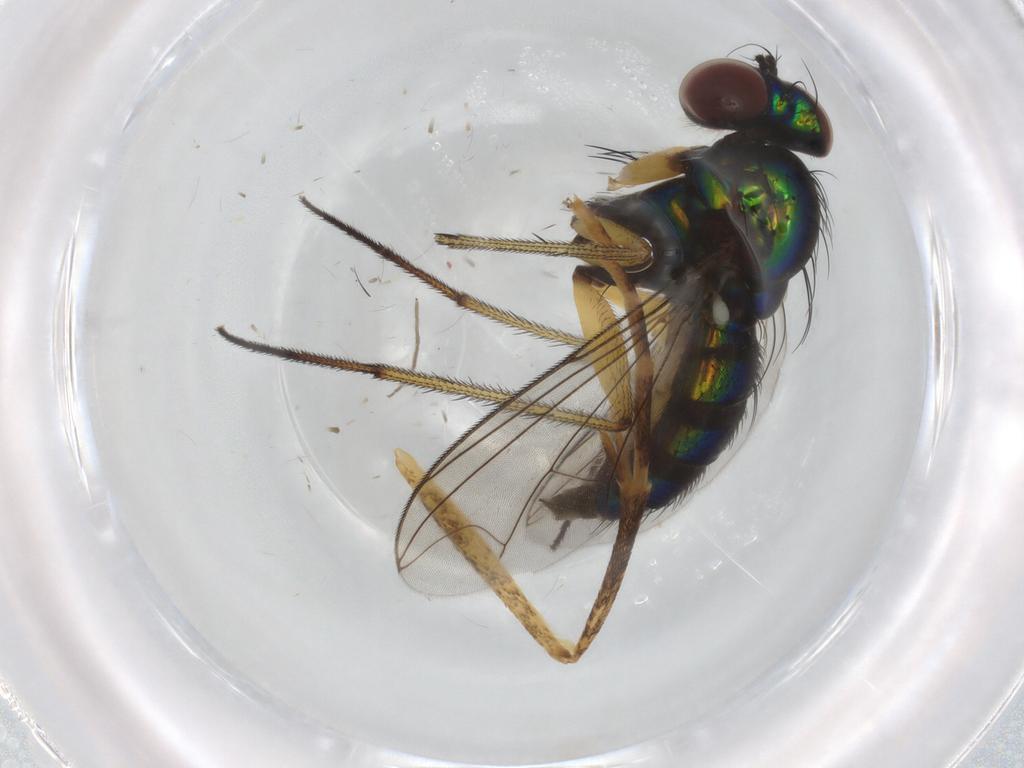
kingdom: Animalia
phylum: Arthropoda
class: Insecta
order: Diptera
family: Dolichopodidae
